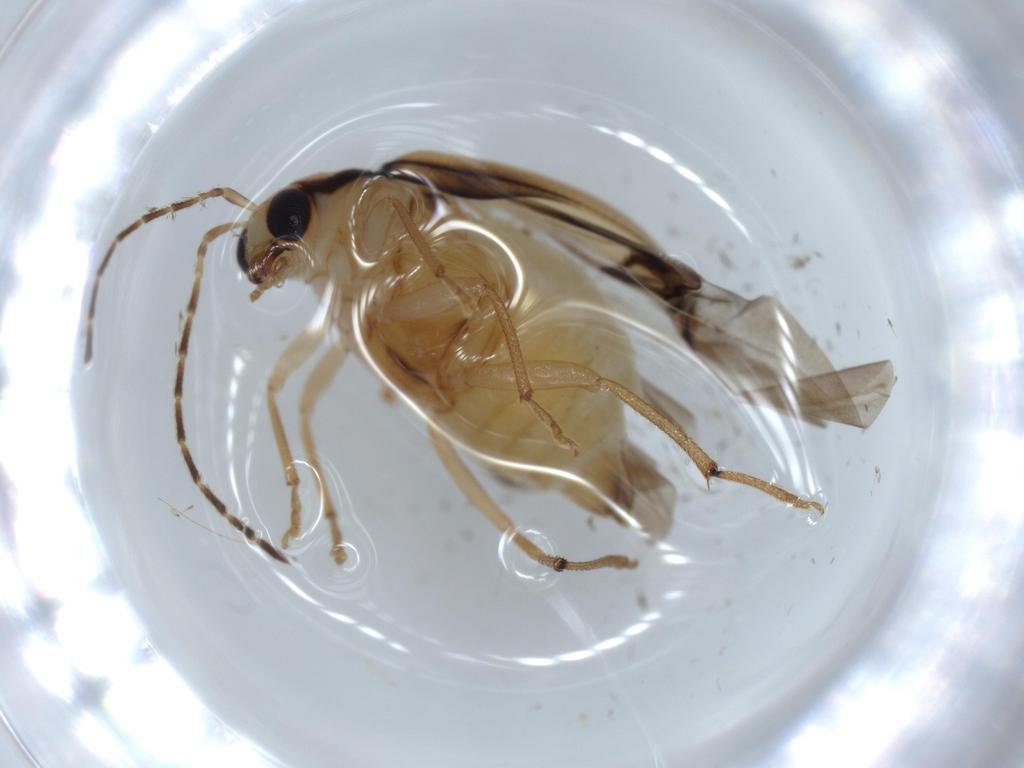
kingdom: Animalia
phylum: Arthropoda
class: Insecta
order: Coleoptera
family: Chrysomelidae
